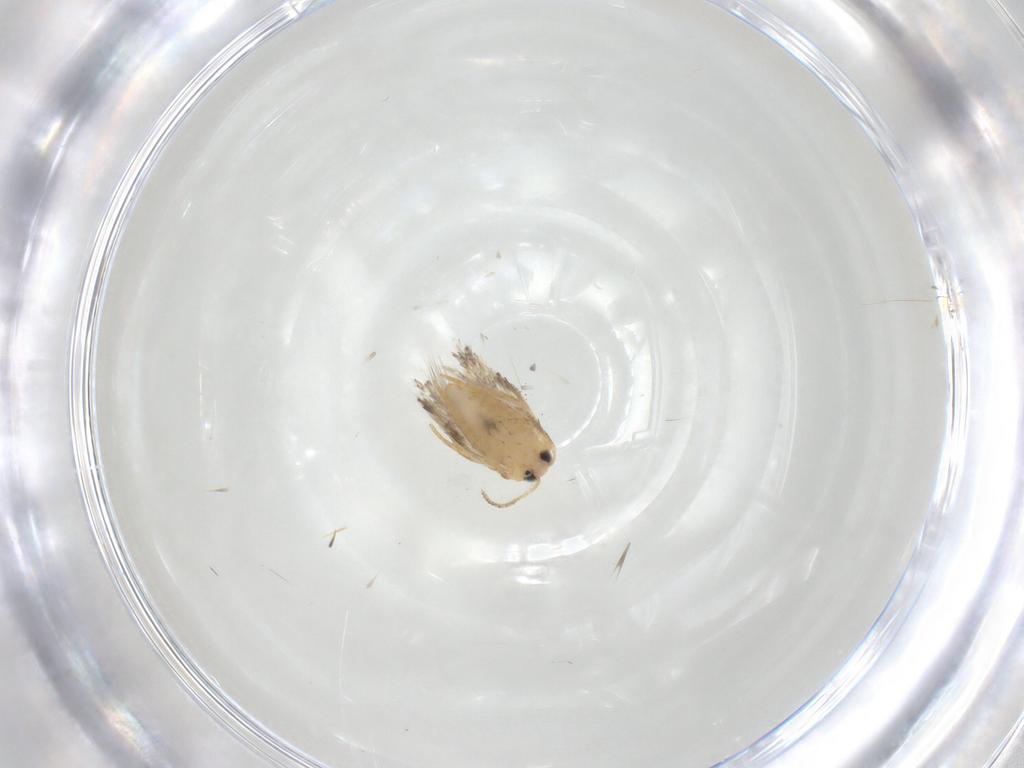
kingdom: Animalia
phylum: Arthropoda
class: Insecta
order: Lepidoptera
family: Nepticulidae
